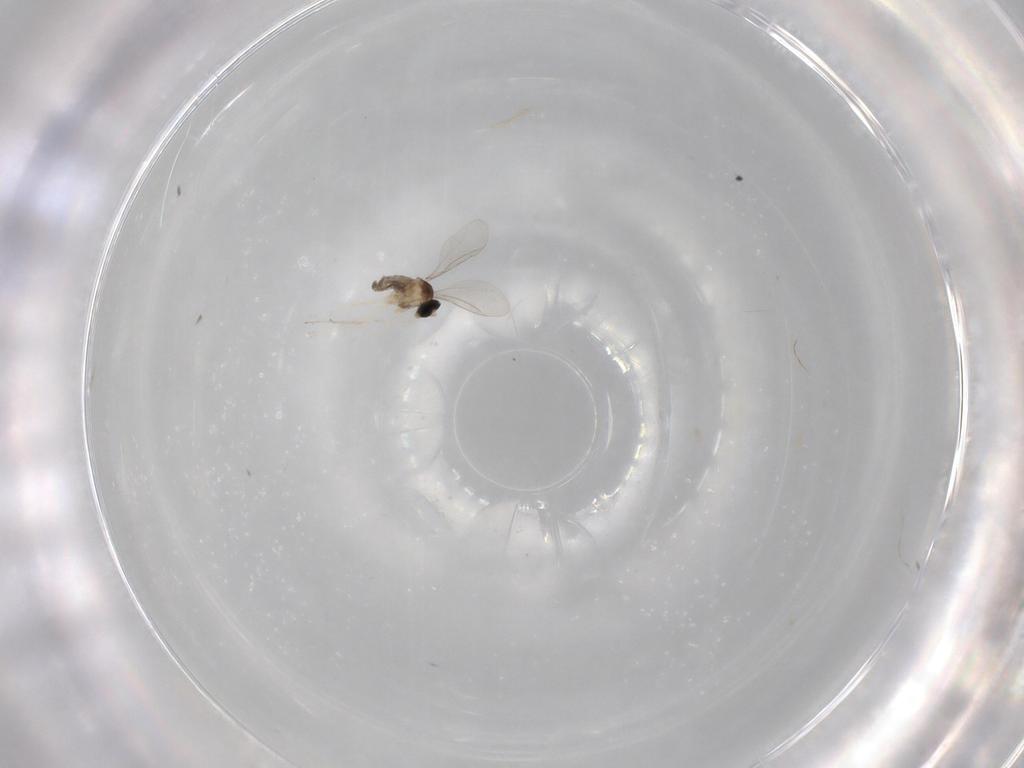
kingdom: Animalia
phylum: Arthropoda
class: Insecta
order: Diptera
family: Cecidomyiidae
